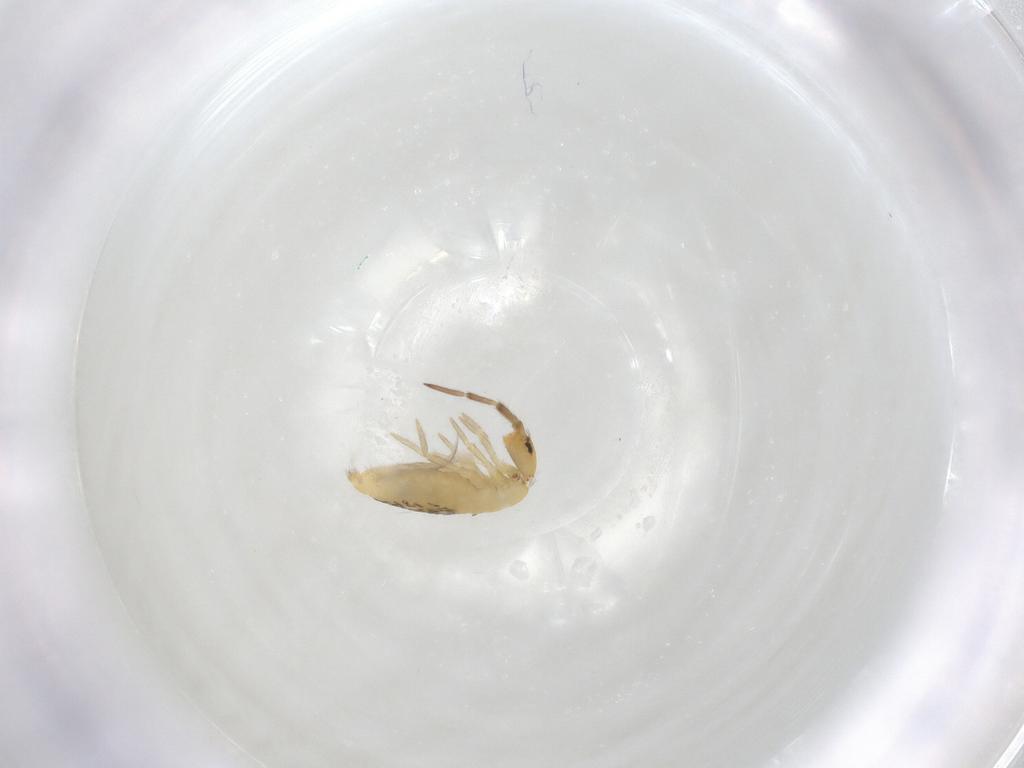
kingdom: Animalia
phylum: Arthropoda
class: Collembola
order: Entomobryomorpha
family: Entomobryidae
